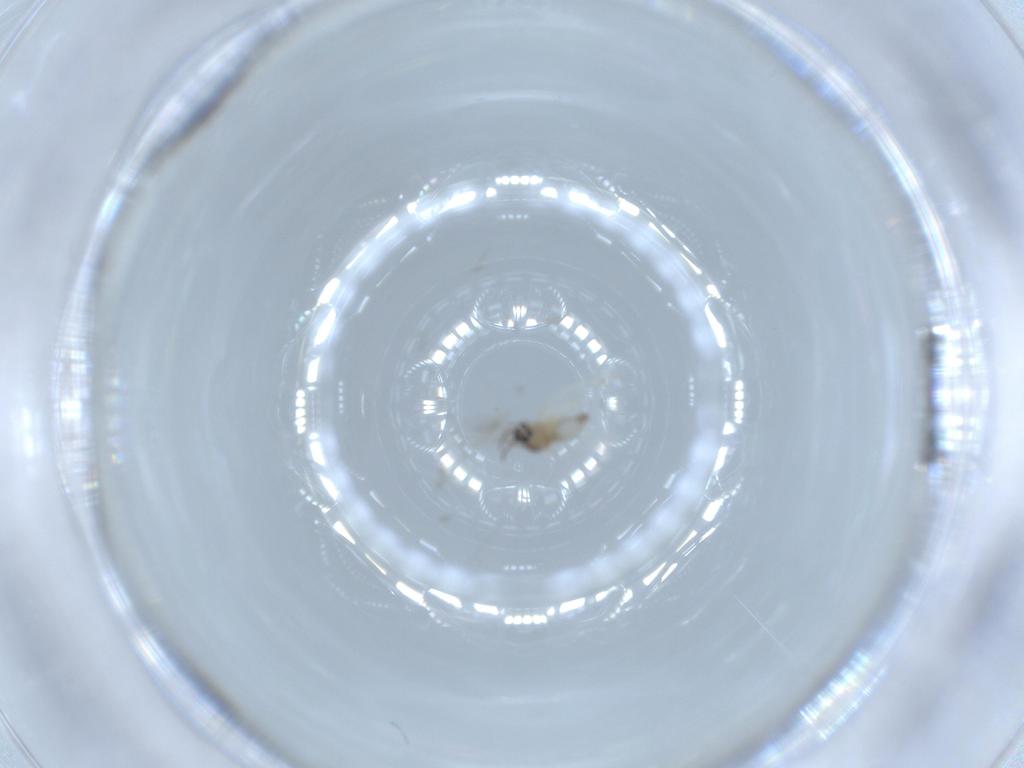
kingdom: Animalia
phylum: Arthropoda
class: Insecta
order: Diptera
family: Cecidomyiidae
